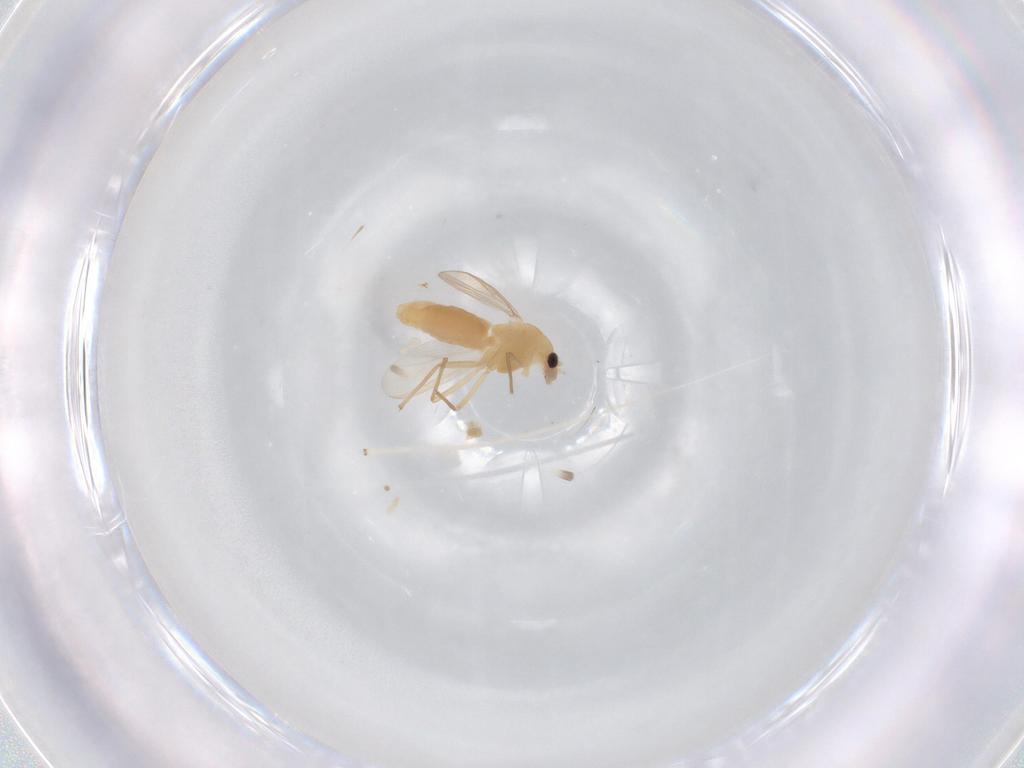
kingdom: Animalia
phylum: Arthropoda
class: Insecta
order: Diptera
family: Chironomidae
